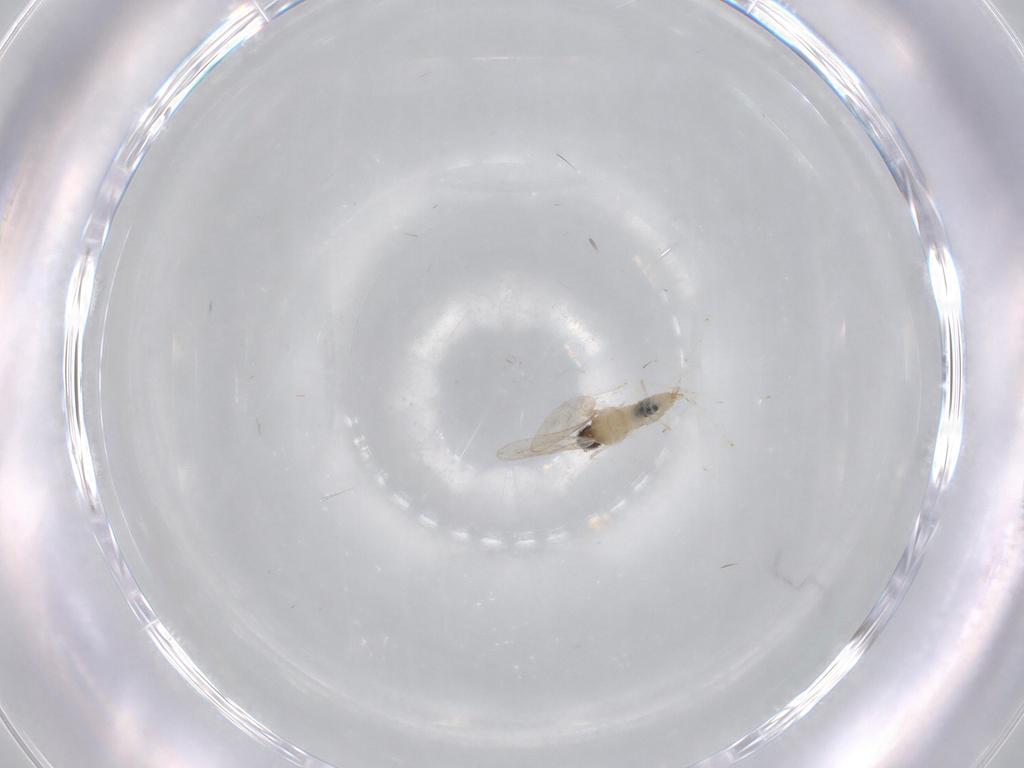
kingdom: Animalia
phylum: Arthropoda
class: Insecta
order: Diptera
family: Cecidomyiidae
